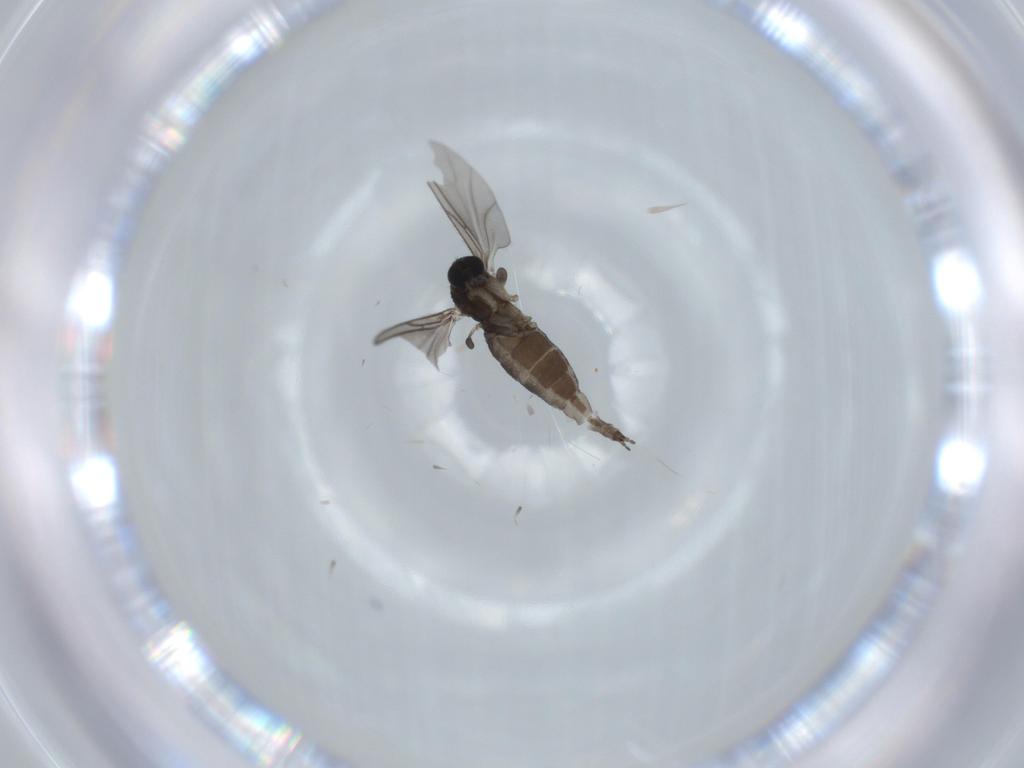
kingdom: Animalia
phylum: Arthropoda
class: Insecta
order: Diptera
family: Sciaridae
